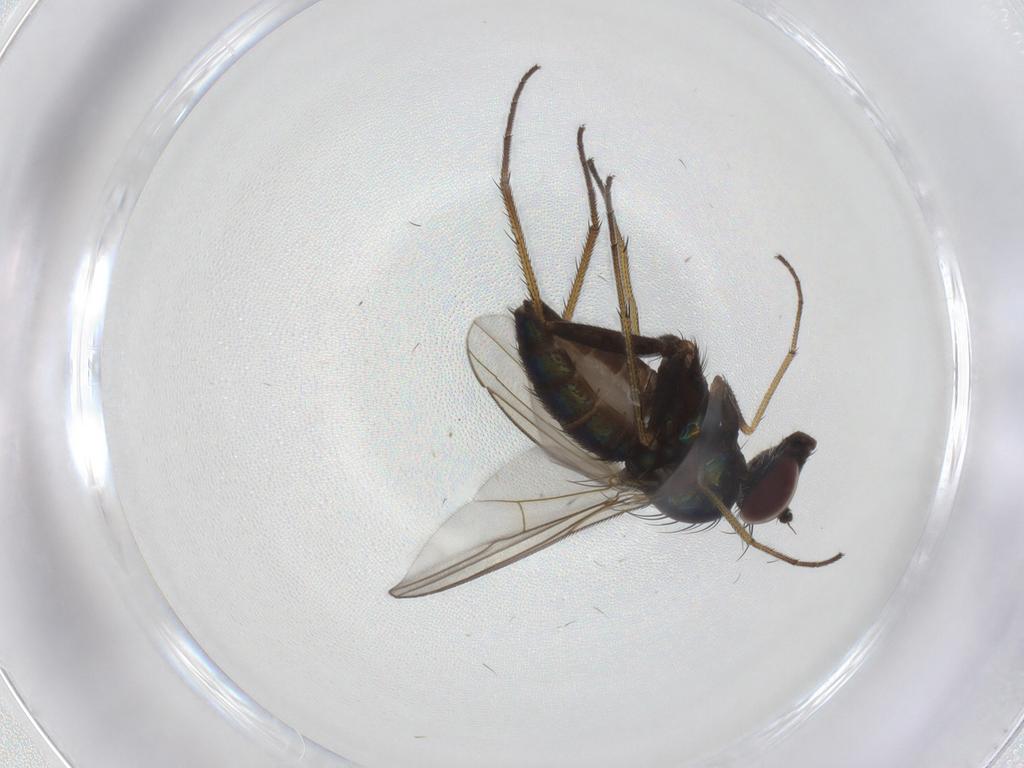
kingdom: Animalia
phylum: Arthropoda
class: Insecta
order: Diptera
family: Dolichopodidae
